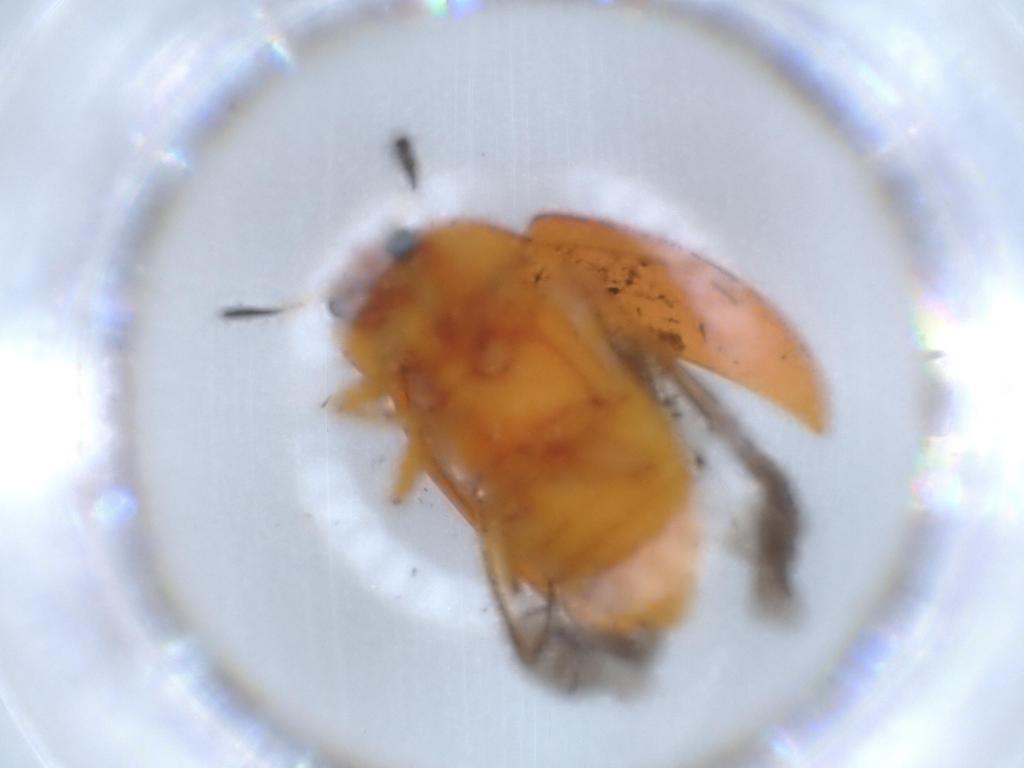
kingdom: Animalia
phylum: Arthropoda
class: Insecta
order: Coleoptera
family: Erotylidae
